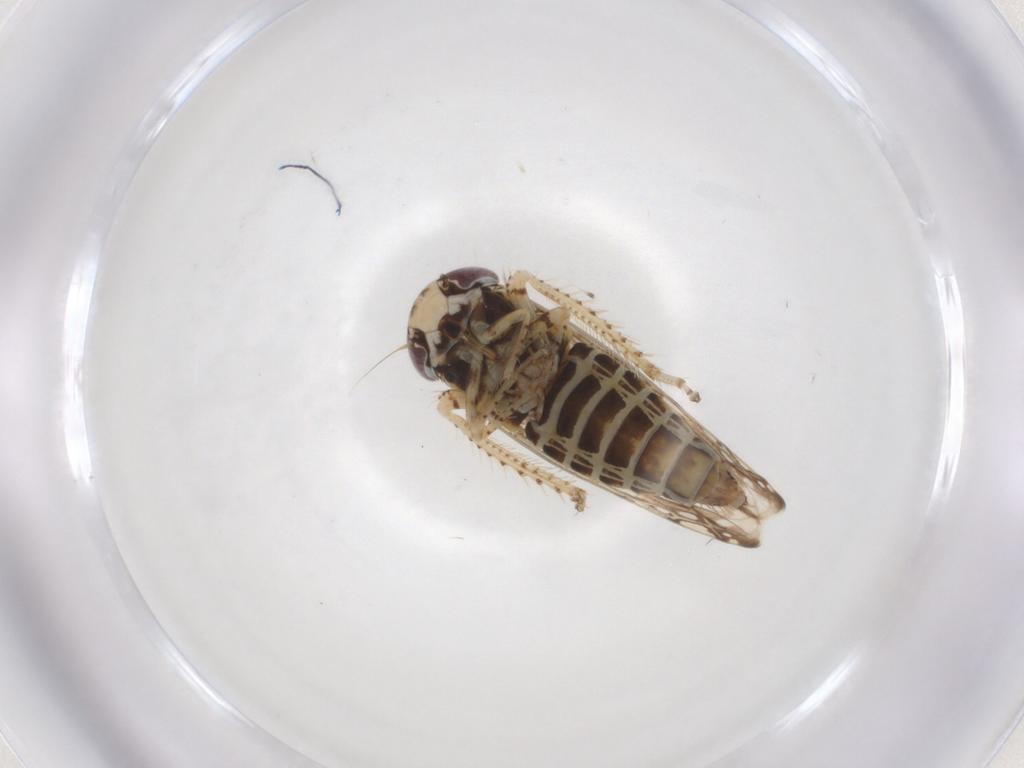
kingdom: Animalia
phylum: Arthropoda
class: Insecta
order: Hemiptera
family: Cicadellidae
